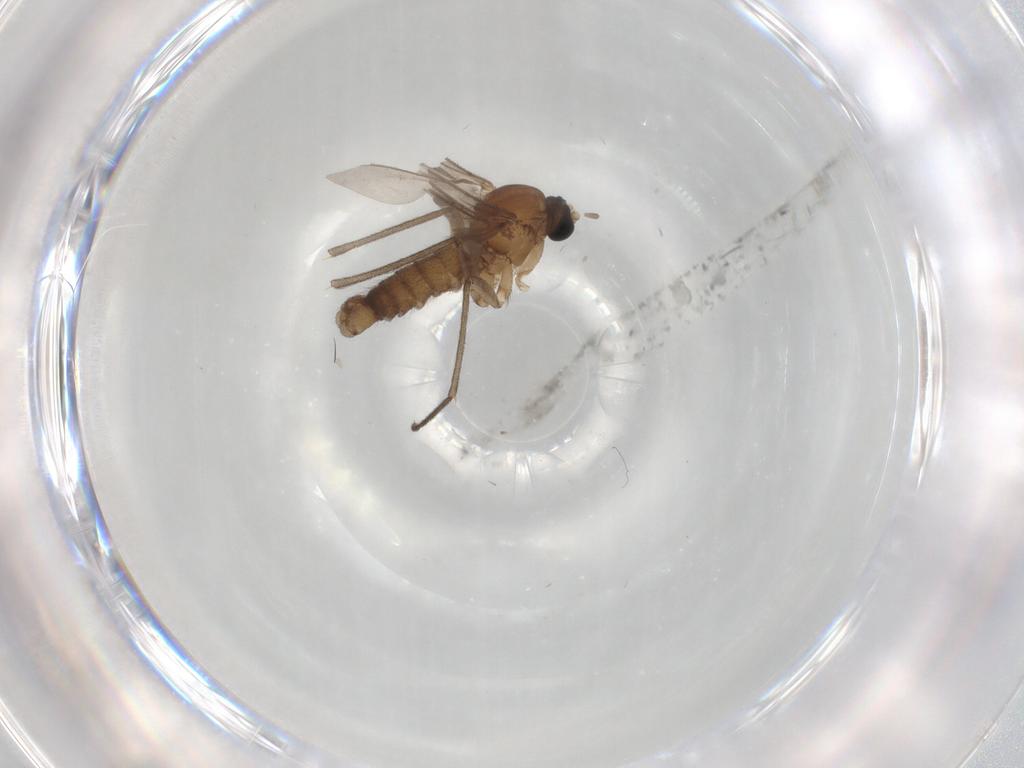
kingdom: Animalia
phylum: Arthropoda
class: Insecta
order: Diptera
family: Sciaridae
